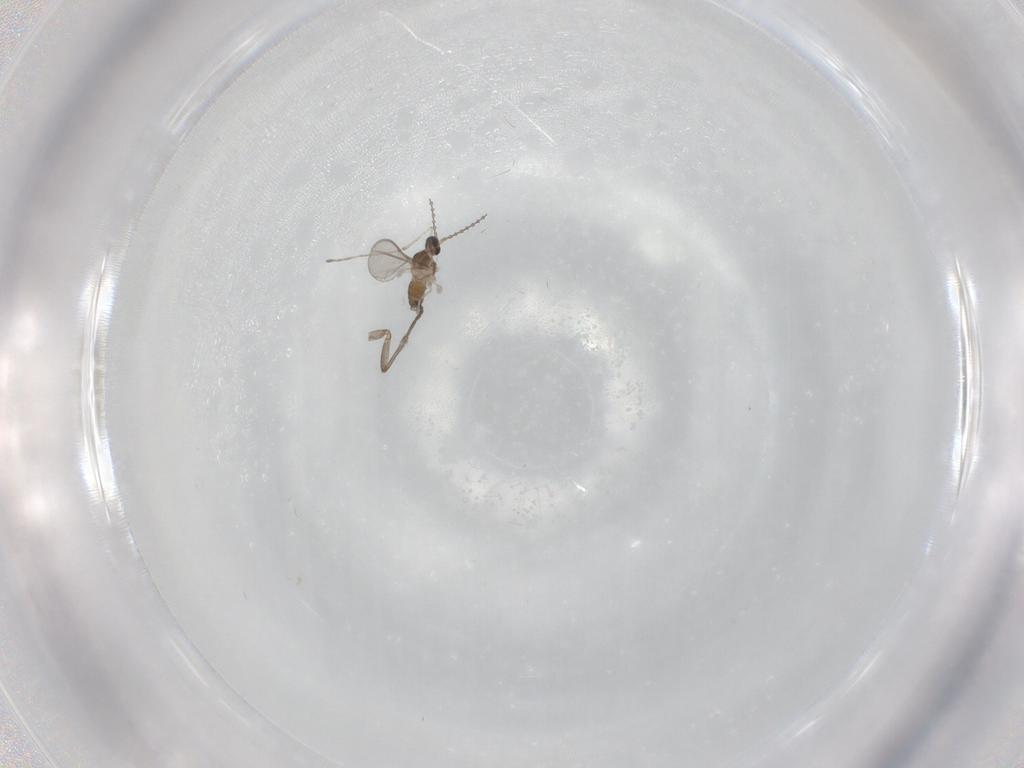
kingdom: Animalia
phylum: Arthropoda
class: Insecta
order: Diptera
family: Cecidomyiidae
